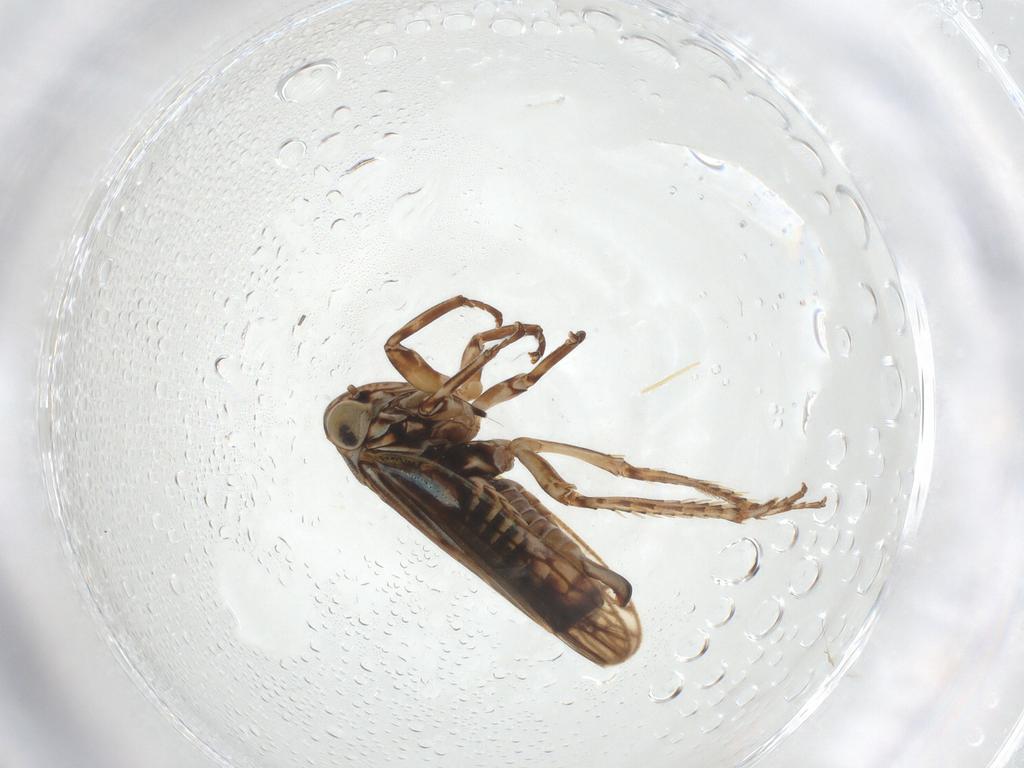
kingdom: Animalia
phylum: Arthropoda
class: Insecta
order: Hemiptera
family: Cicadellidae
